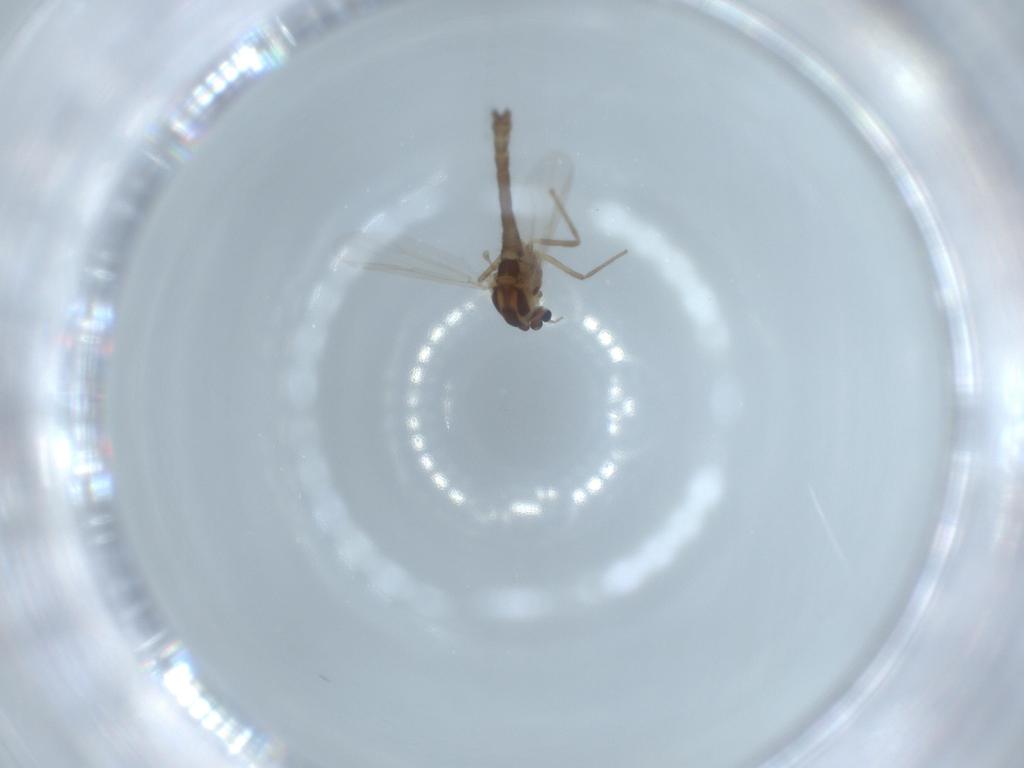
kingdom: Animalia
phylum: Arthropoda
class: Insecta
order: Diptera
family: Chironomidae
